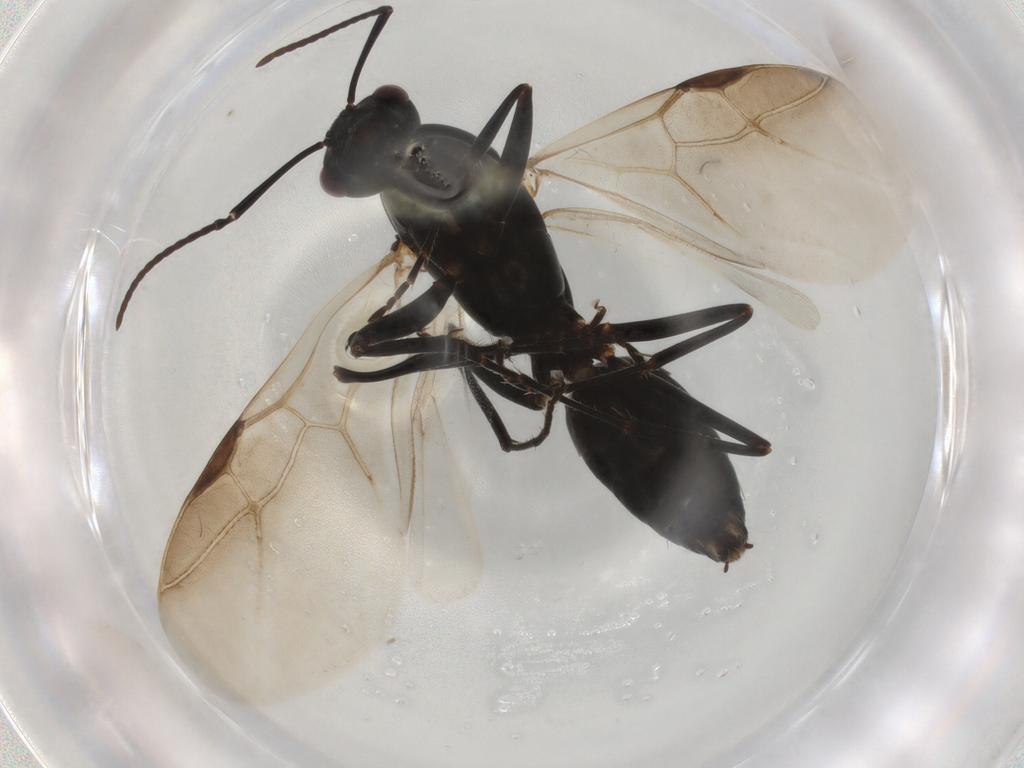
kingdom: Animalia
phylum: Arthropoda
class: Insecta
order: Hymenoptera
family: Formicidae
